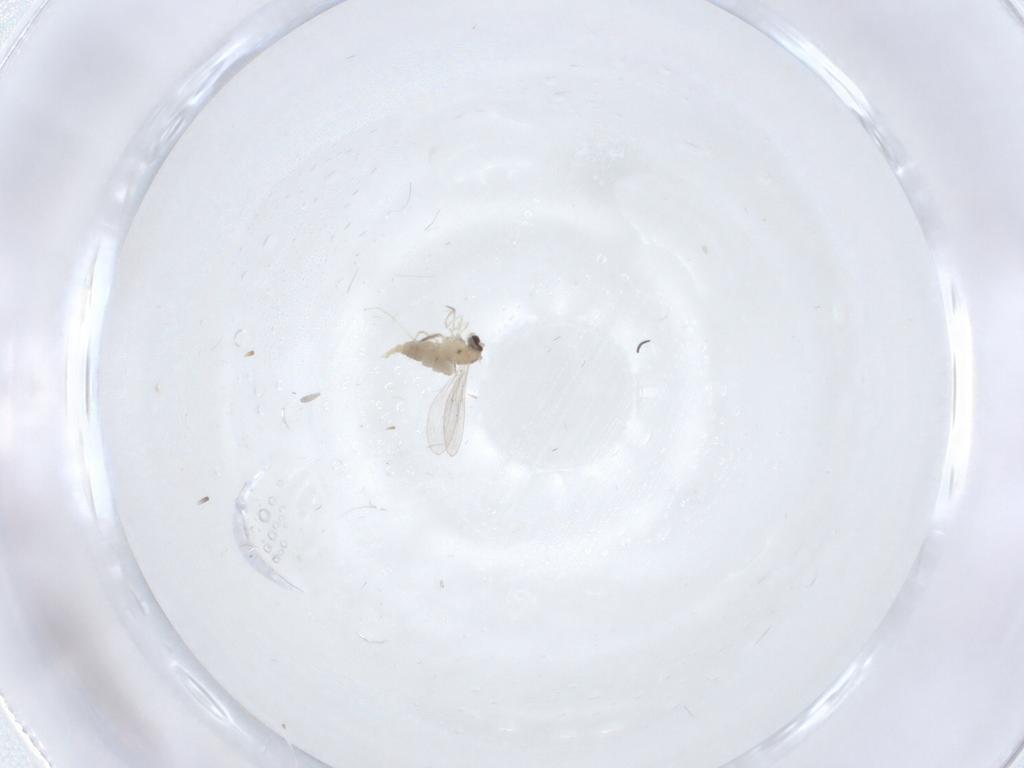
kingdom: Animalia
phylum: Arthropoda
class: Insecta
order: Diptera
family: Cecidomyiidae
